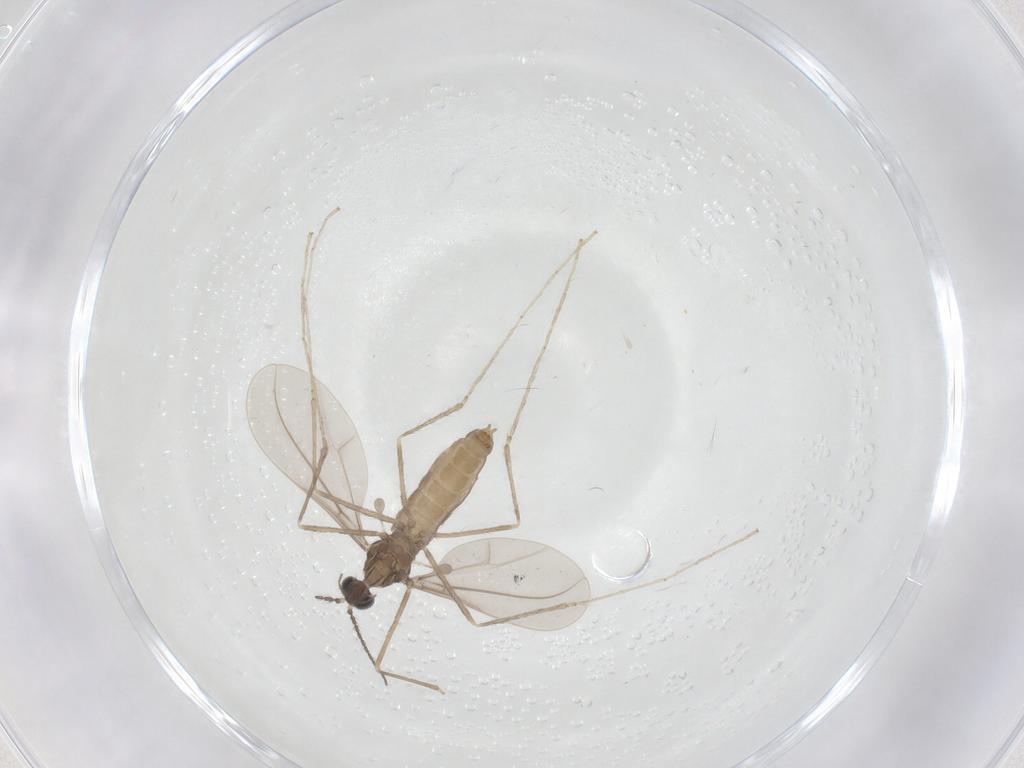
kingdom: Animalia
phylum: Arthropoda
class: Insecta
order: Diptera
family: Cecidomyiidae
